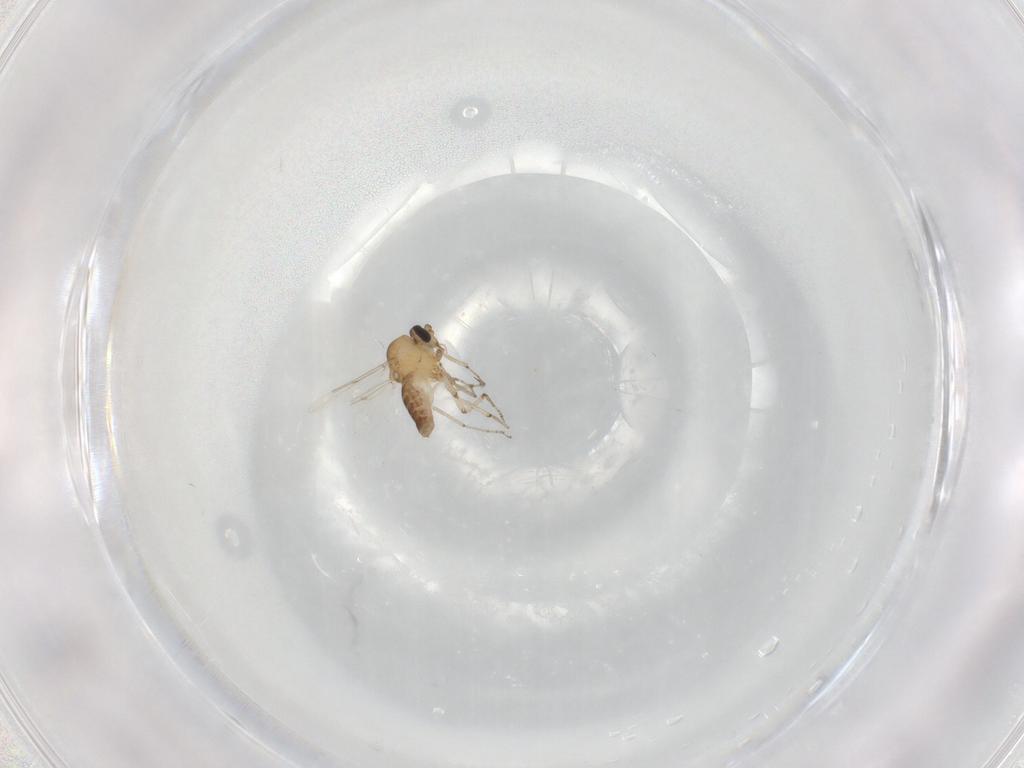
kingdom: Animalia
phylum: Arthropoda
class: Insecta
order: Diptera
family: Ceratopogonidae
